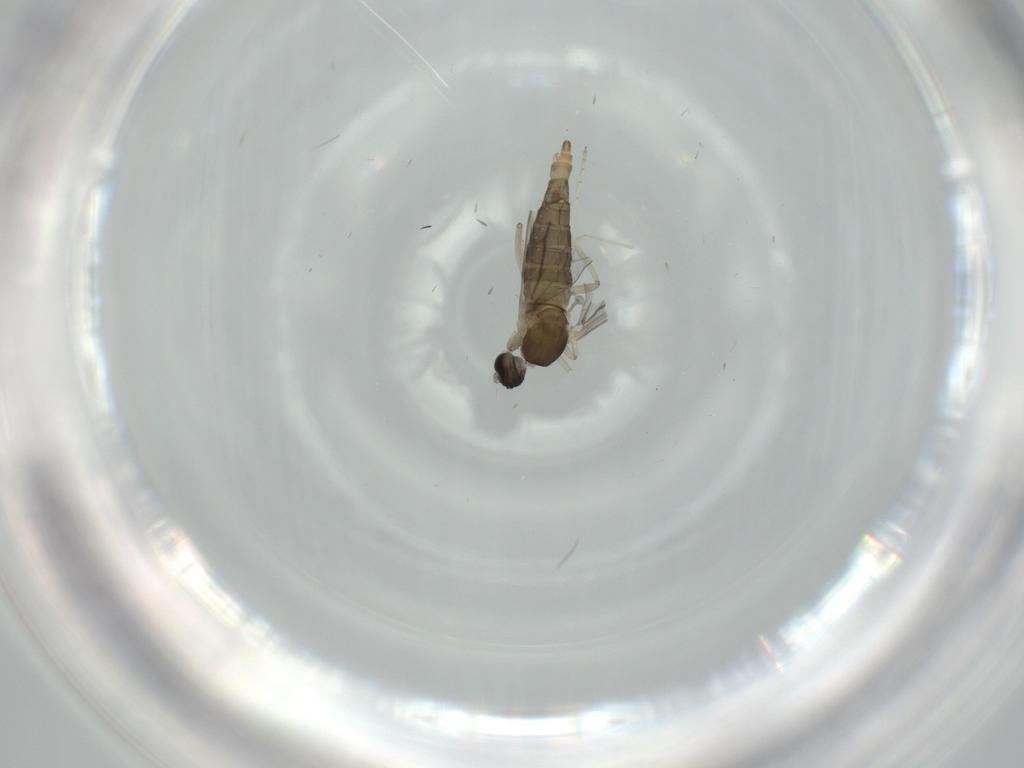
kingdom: Animalia
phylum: Arthropoda
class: Insecta
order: Diptera
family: Cecidomyiidae
